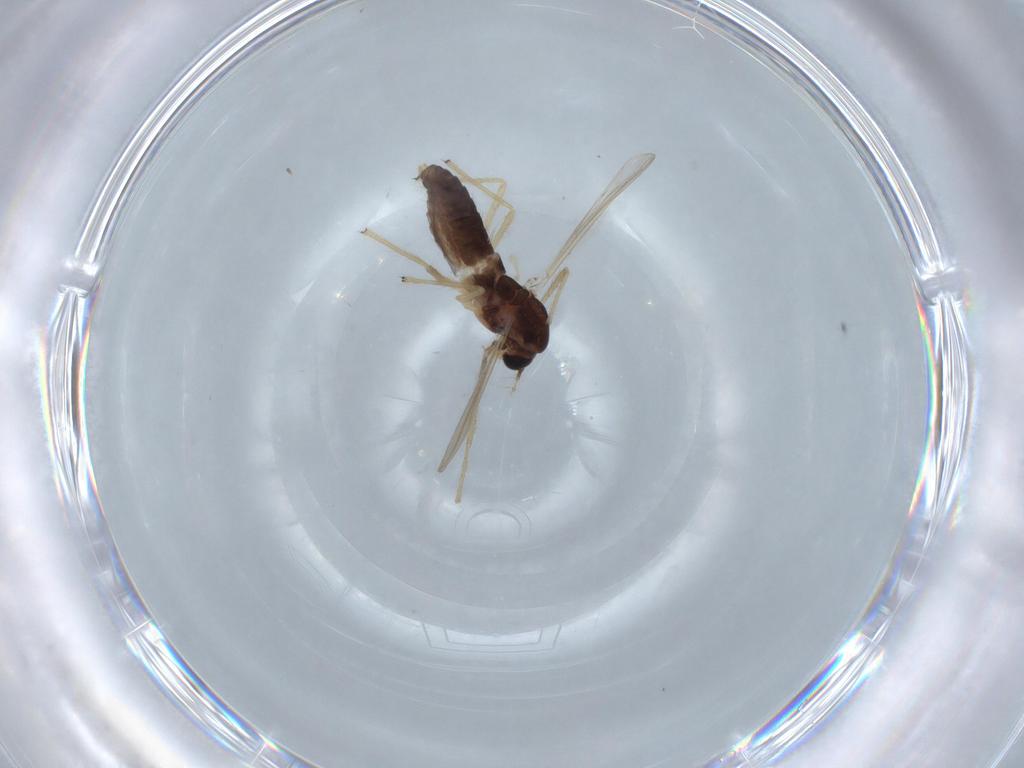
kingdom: Animalia
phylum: Arthropoda
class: Insecta
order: Diptera
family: Chironomidae
